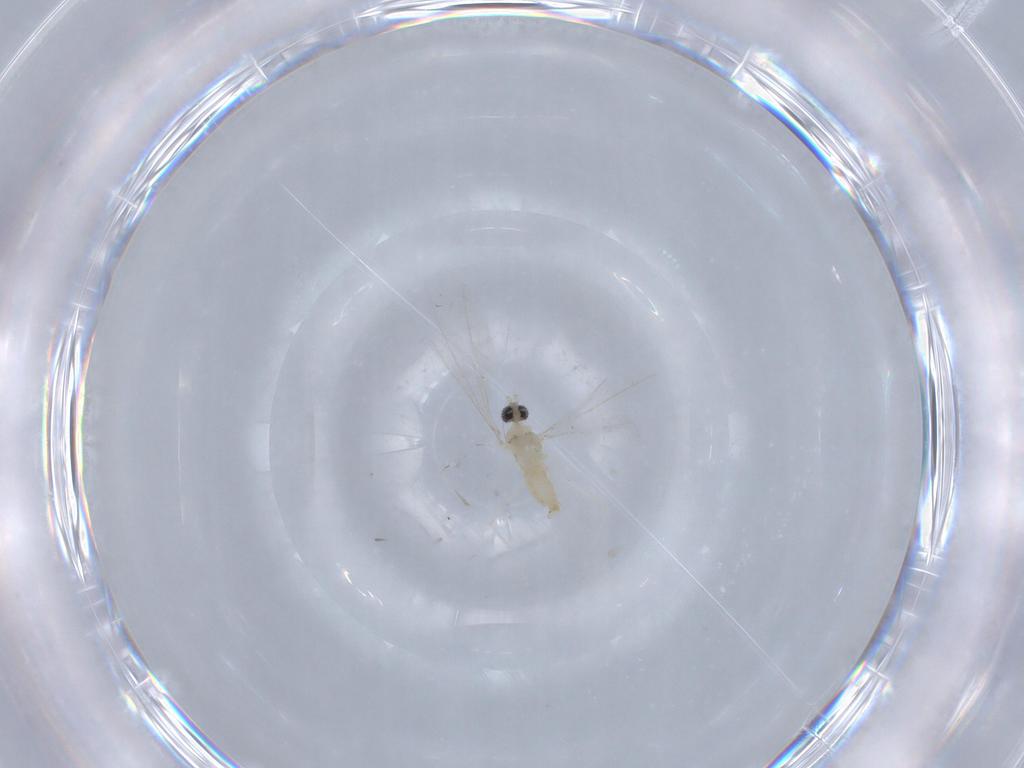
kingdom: Animalia
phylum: Arthropoda
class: Insecta
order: Diptera
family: Cecidomyiidae
